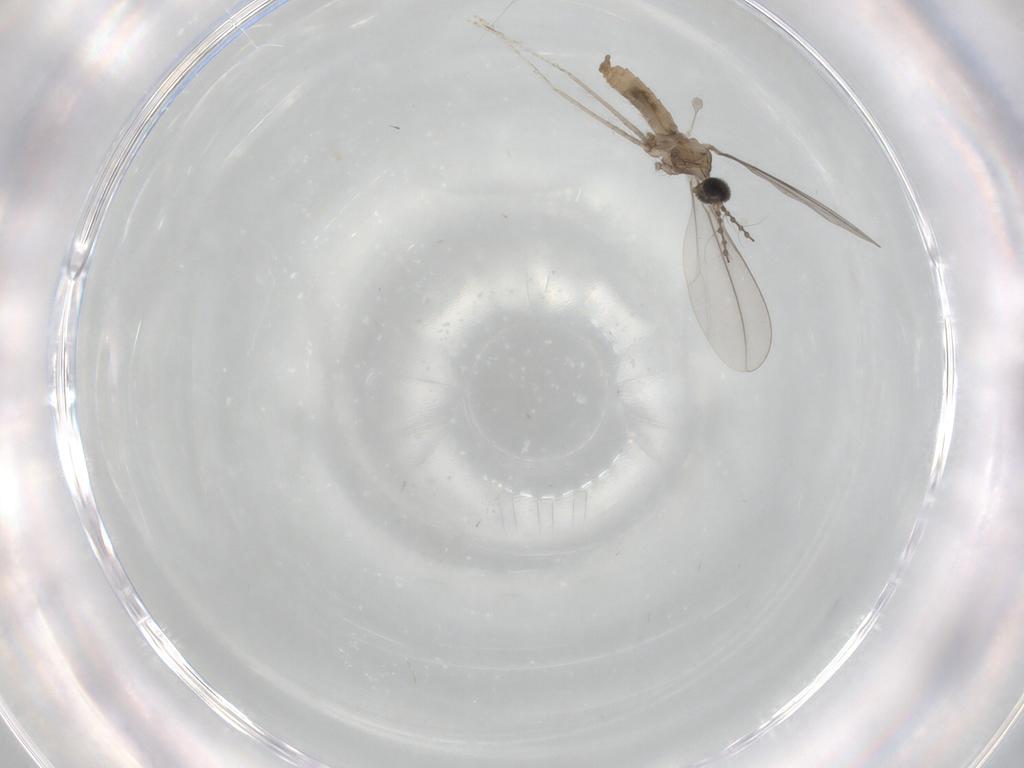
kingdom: Animalia
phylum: Arthropoda
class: Insecta
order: Diptera
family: Cecidomyiidae
